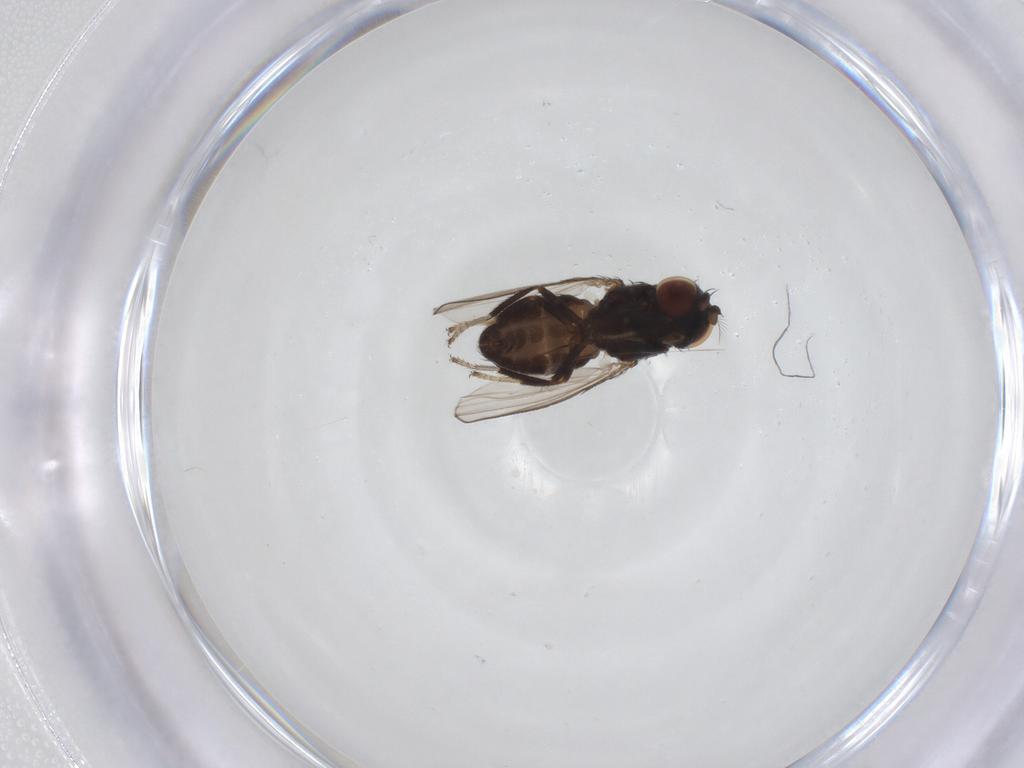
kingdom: Animalia
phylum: Arthropoda
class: Insecta
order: Diptera
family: Ephydridae
